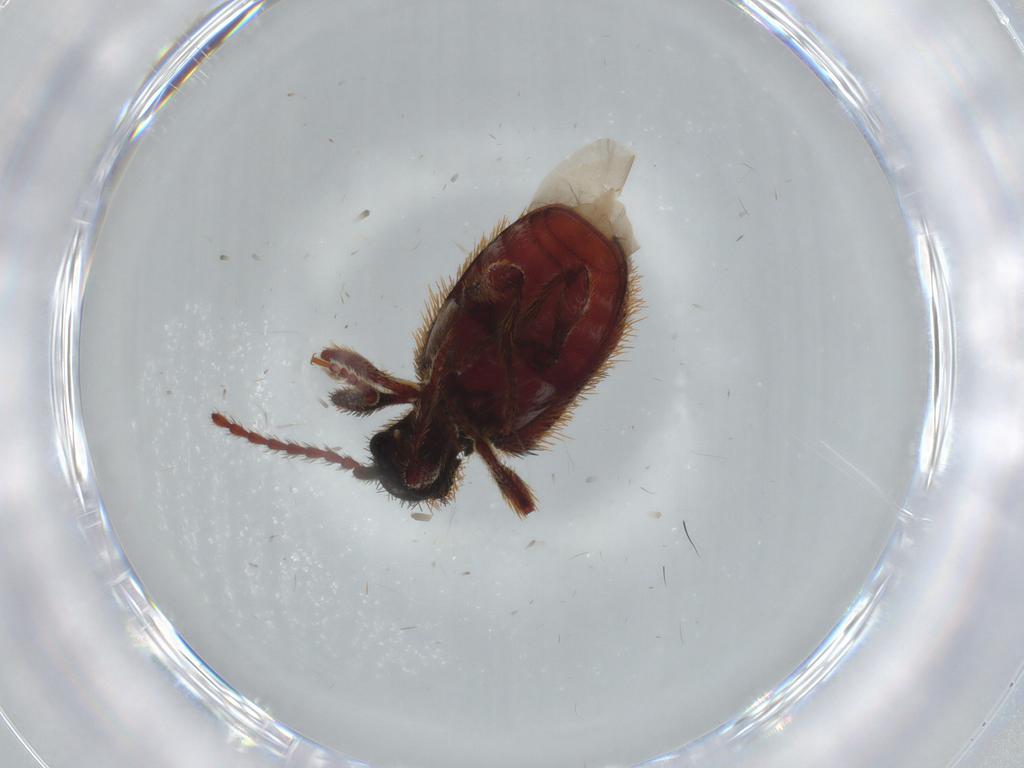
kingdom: Animalia
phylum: Arthropoda
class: Insecta
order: Coleoptera
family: Ptinidae
